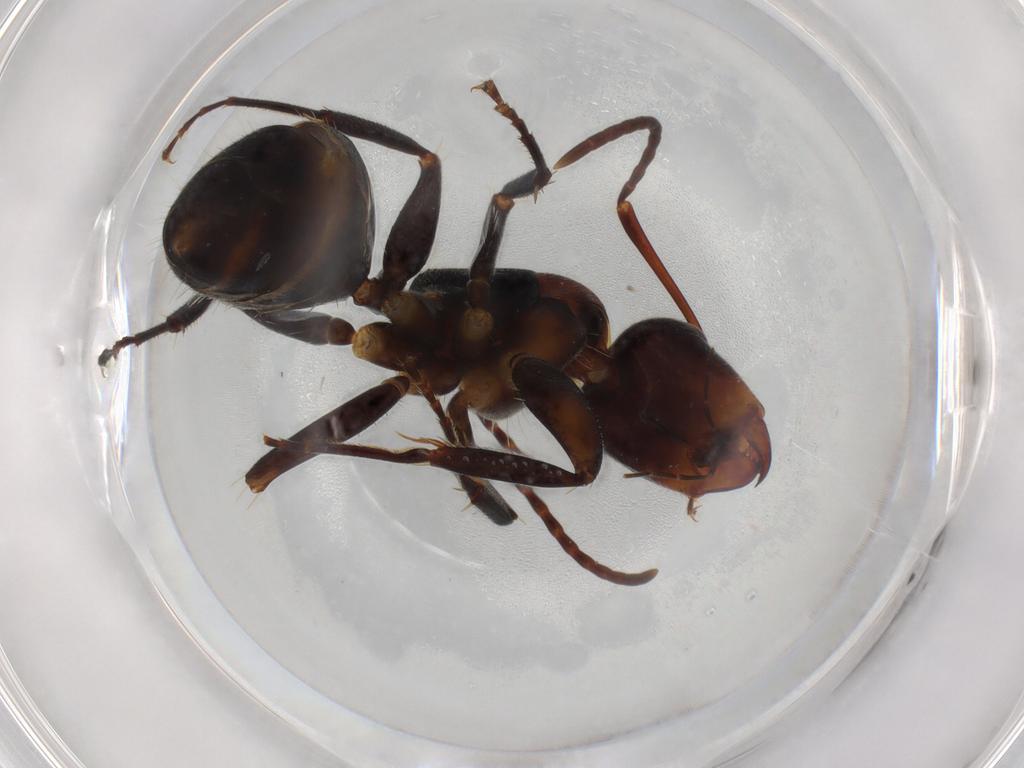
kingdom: Animalia
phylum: Arthropoda
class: Insecta
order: Hymenoptera
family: Formicidae
